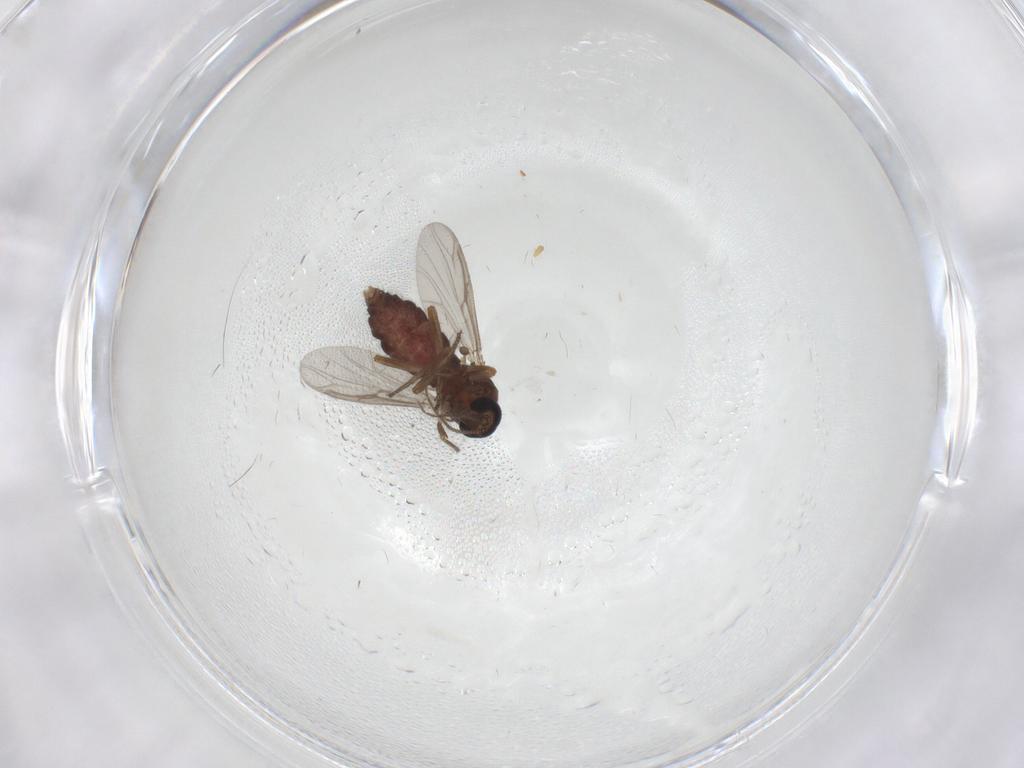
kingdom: Animalia
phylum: Arthropoda
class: Insecta
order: Diptera
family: Ceratopogonidae
